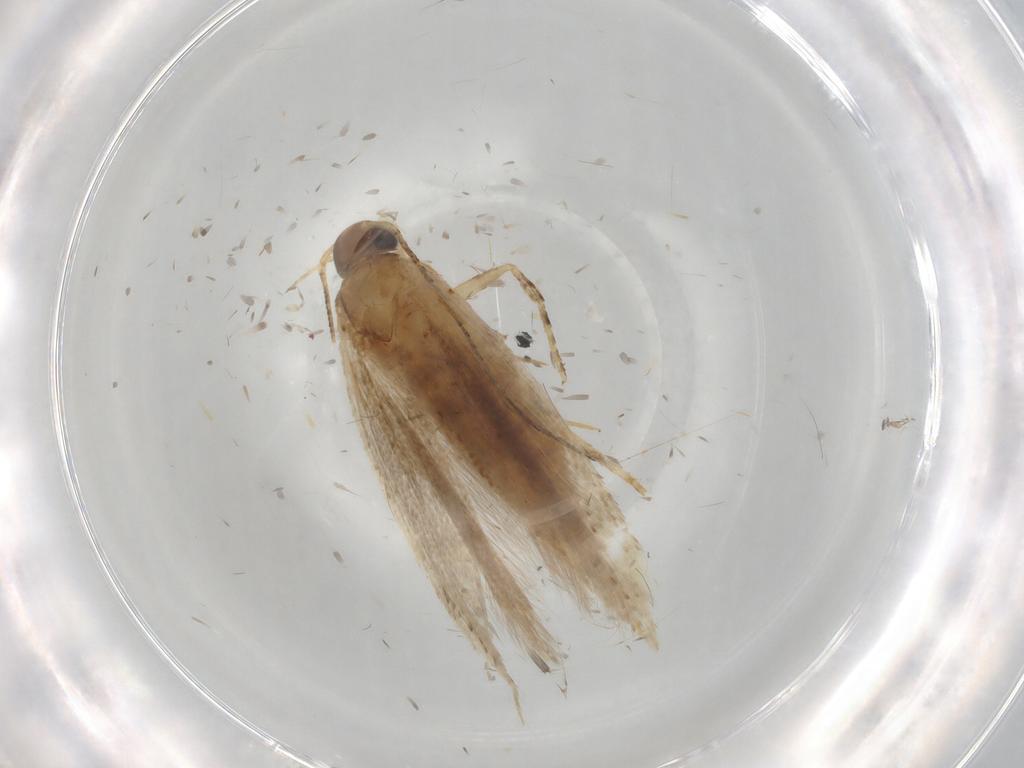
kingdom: Animalia
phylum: Arthropoda
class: Insecta
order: Lepidoptera
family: Gelechiidae
